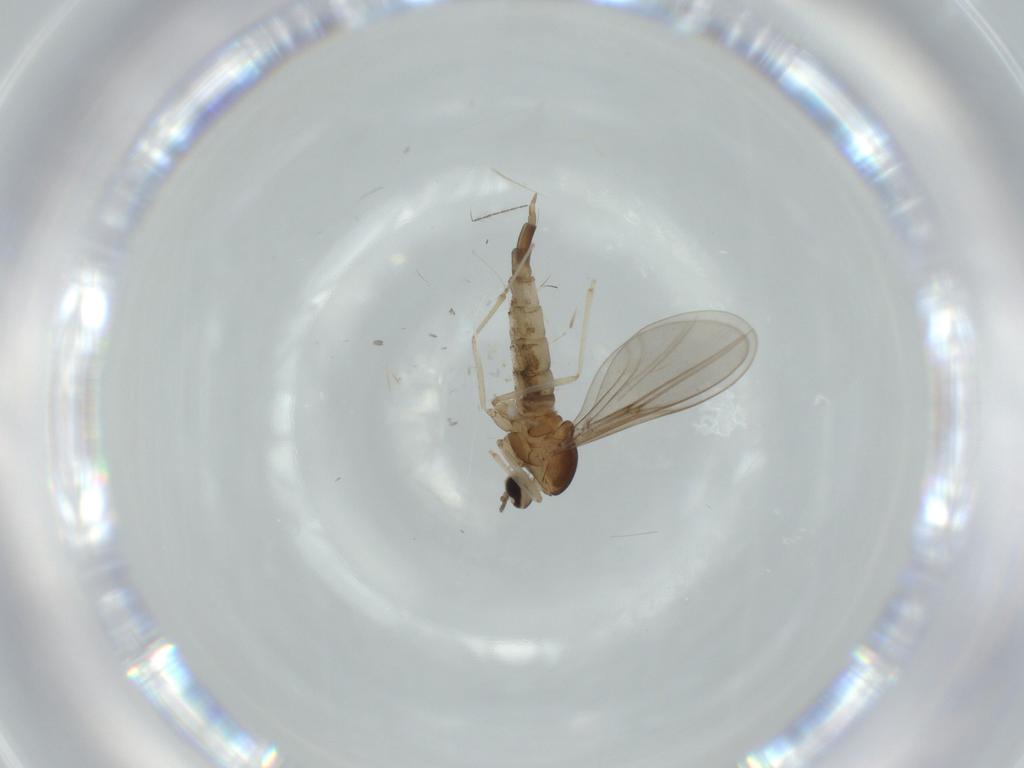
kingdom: Animalia
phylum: Arthropoda
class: Insecta
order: Diptera
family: Cecidomyiidae
